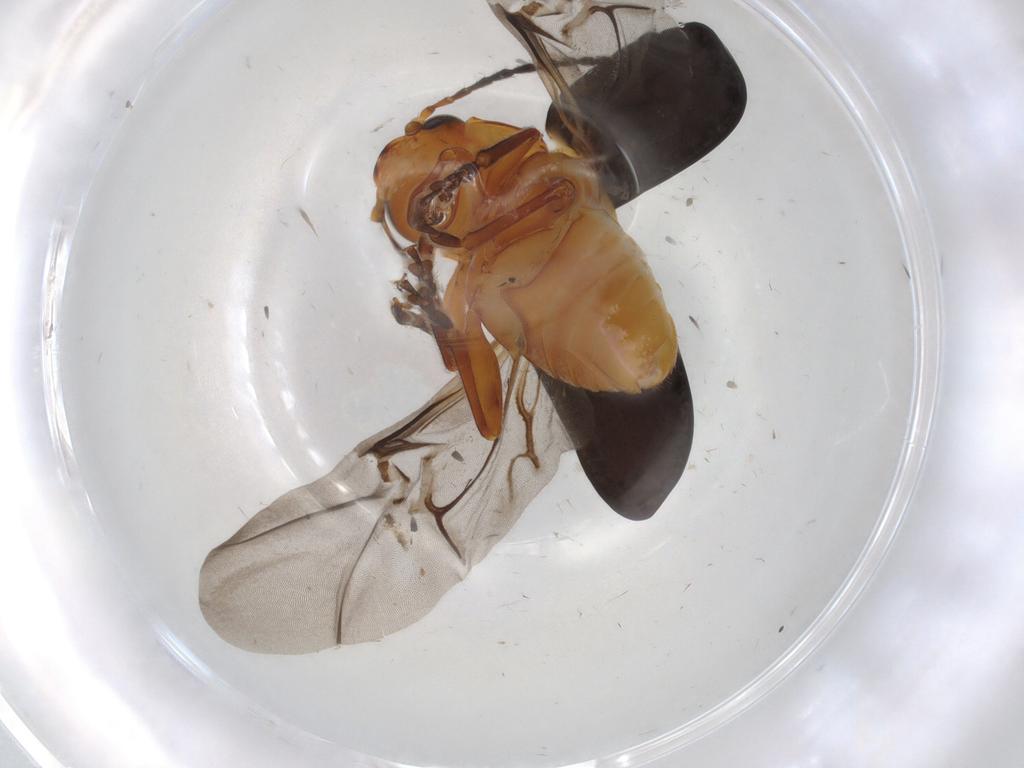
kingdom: Animalia
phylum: Arthropoda
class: Insecta
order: Coleoptera
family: Chrysomelidae
